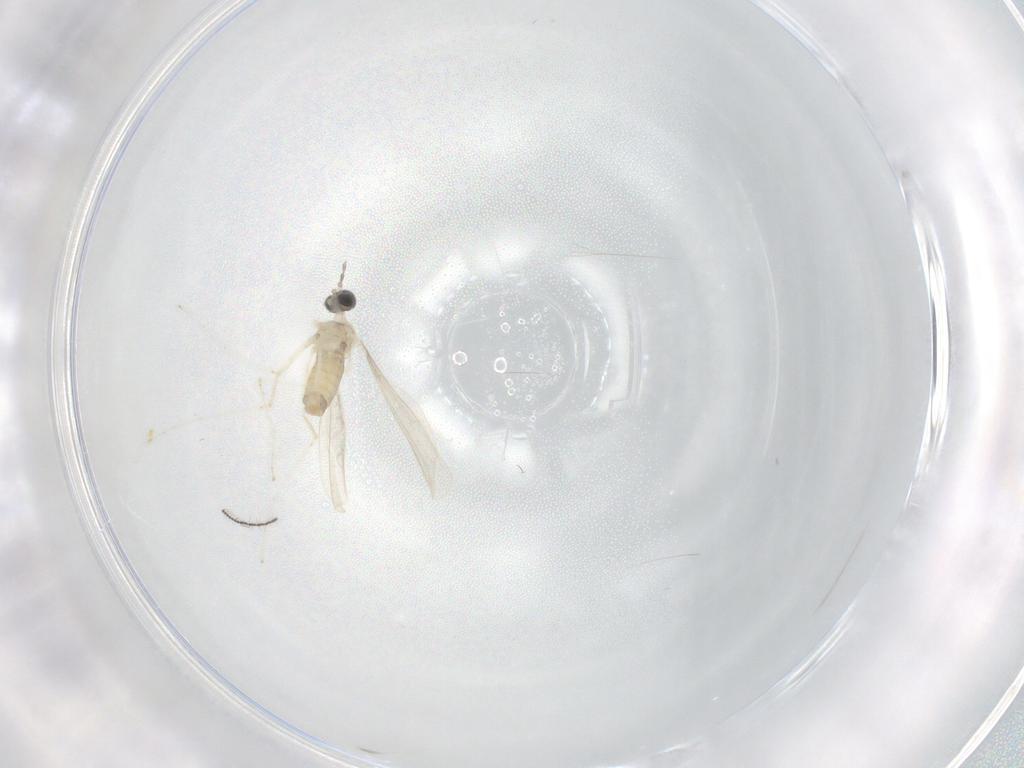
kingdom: Animalia
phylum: Arthropoda
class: Insecta
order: Diptera
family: Ceratopogonidae
